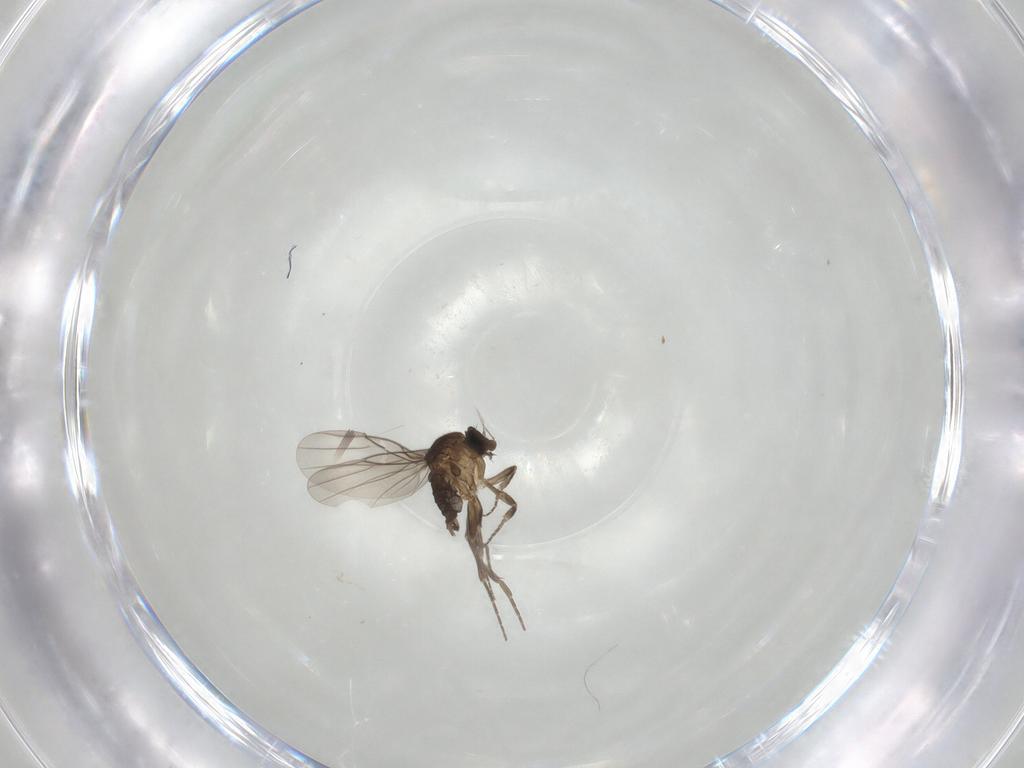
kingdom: Animalia
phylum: Arthropoda
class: Insecta
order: Diptera
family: Phoridae
